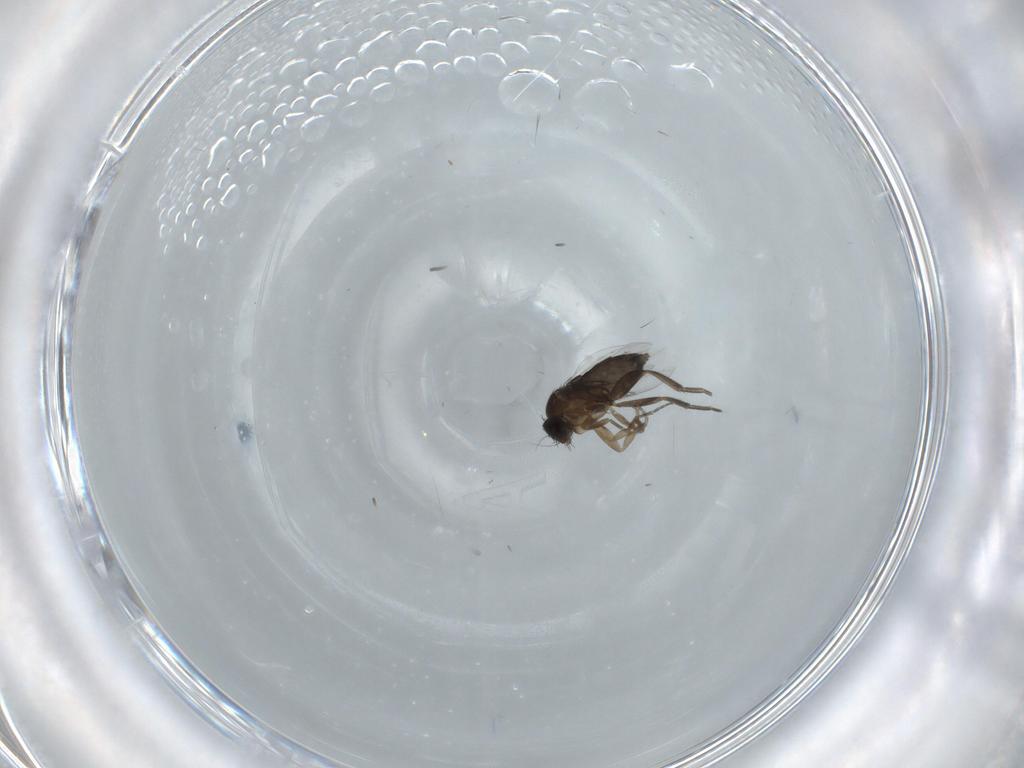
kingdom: Animalia
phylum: Arthropoda
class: Insecta
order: Diptera
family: Phoridae
